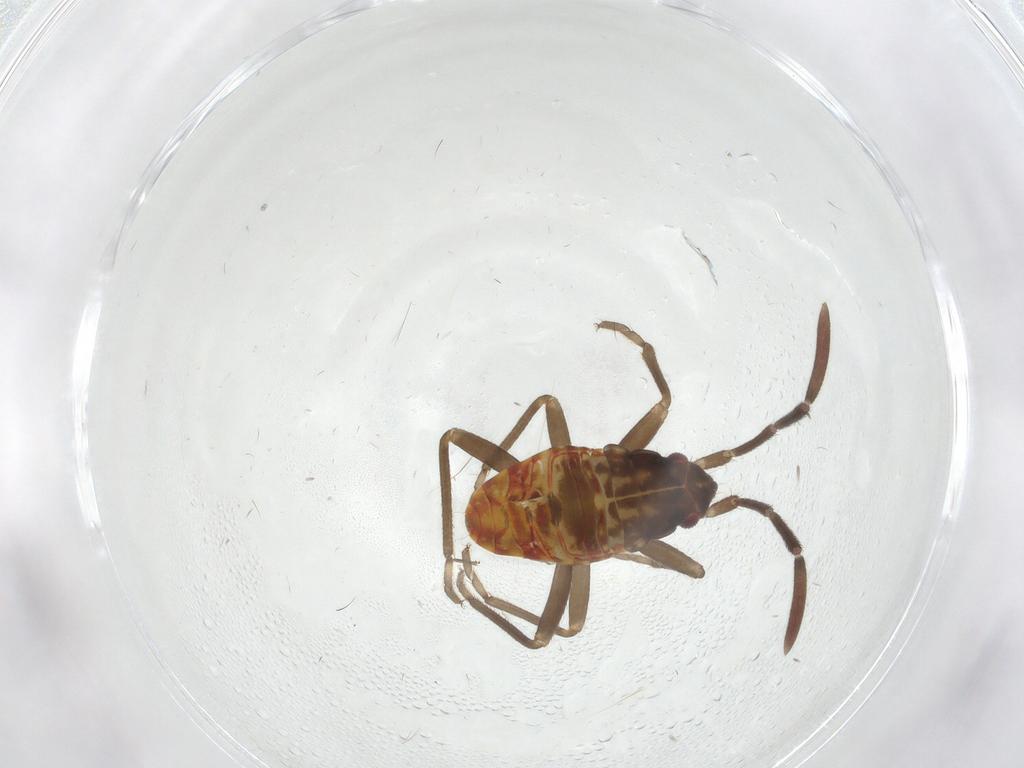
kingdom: Animalia
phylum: Arthropoda
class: Insecta
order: Hemiptera
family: Rhyparochromidae
